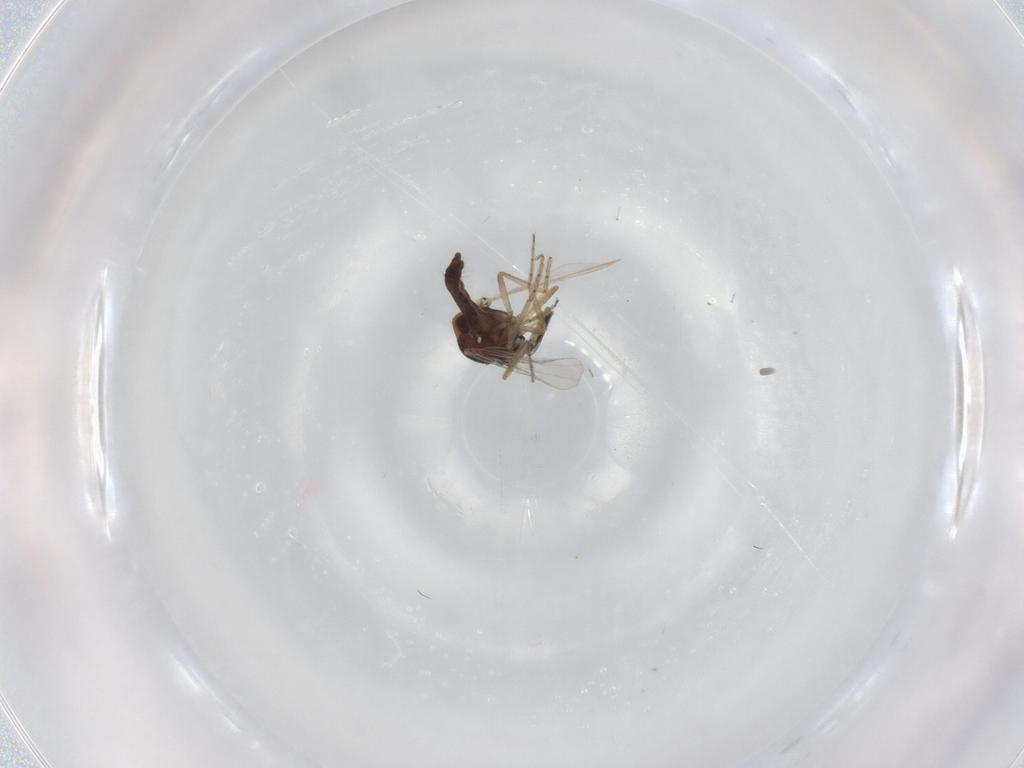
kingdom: Animalia
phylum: Arthropoda
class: Insecta
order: Diptera
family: Ceratopogonidae
